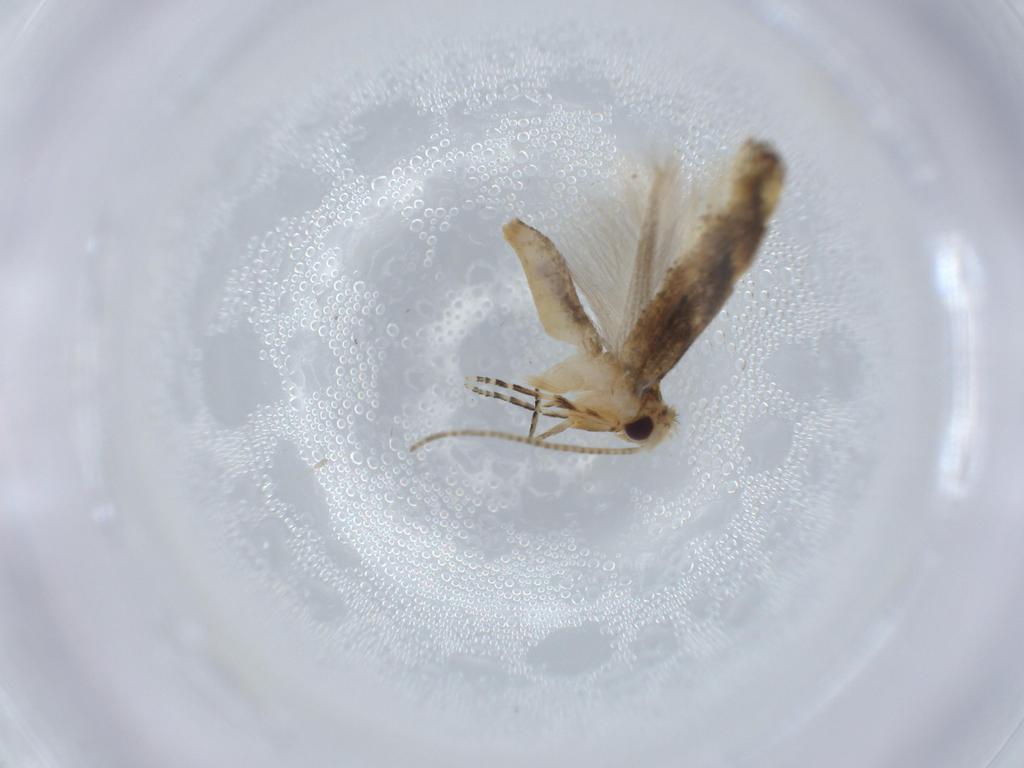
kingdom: Animalia
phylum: Arthropoda
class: Insecta
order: Lepidoptera
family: Bucculatricidae
